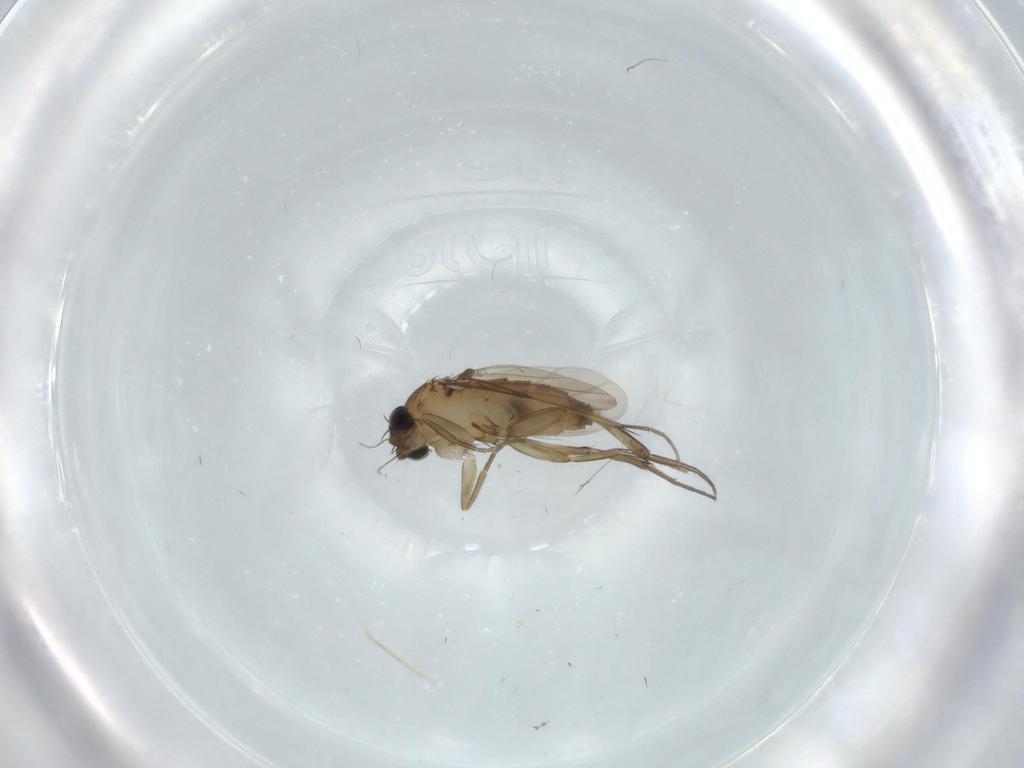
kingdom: Animalia
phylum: Arthropoda
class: Insecta
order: Diptera
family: Phoridae
